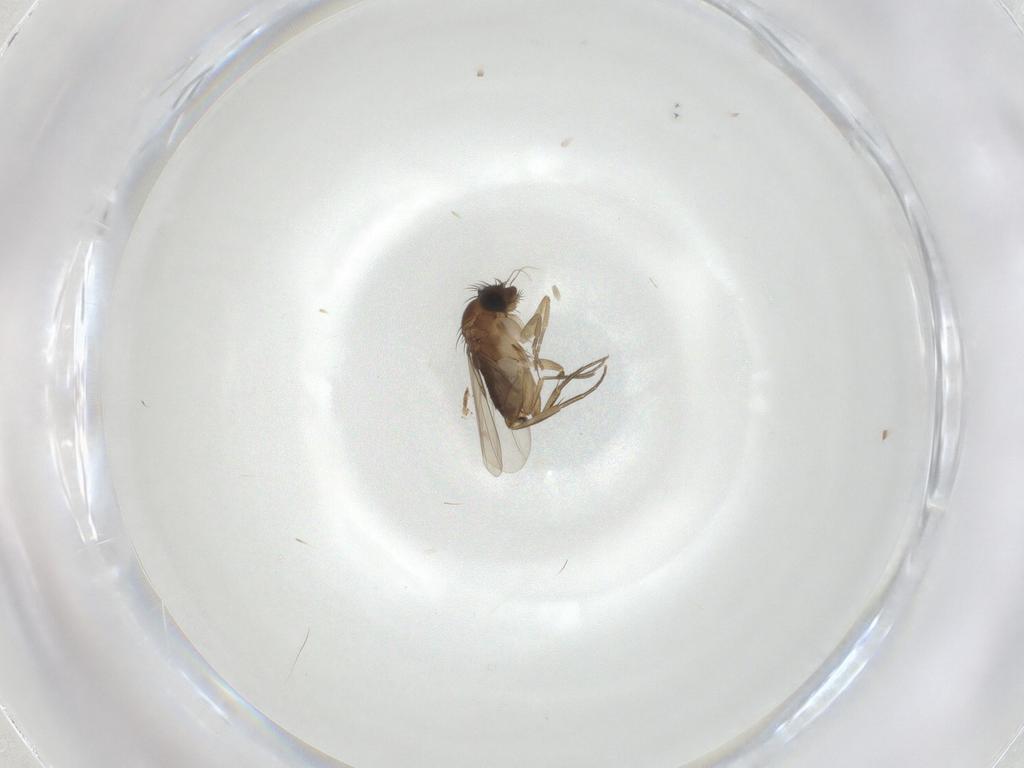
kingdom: Animalia
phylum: Arthropoda
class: Insecta
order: Diptera
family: Phoridae
